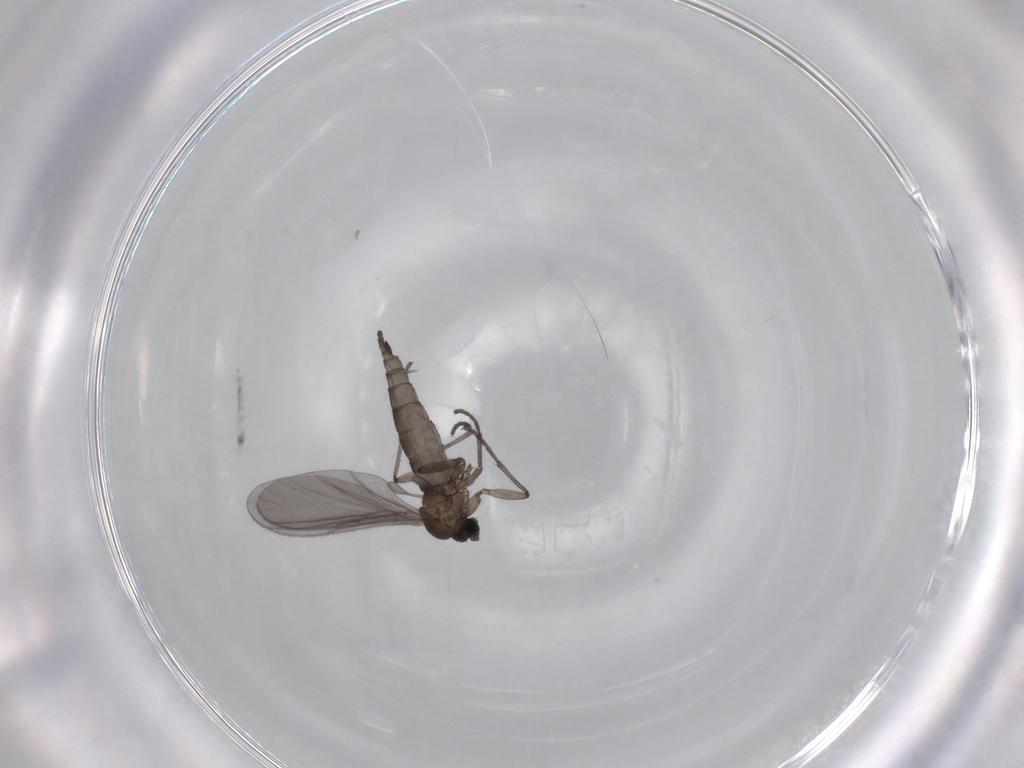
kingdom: Animalia
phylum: Arthropoda
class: Insecta
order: Diptera
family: Sciaridae
